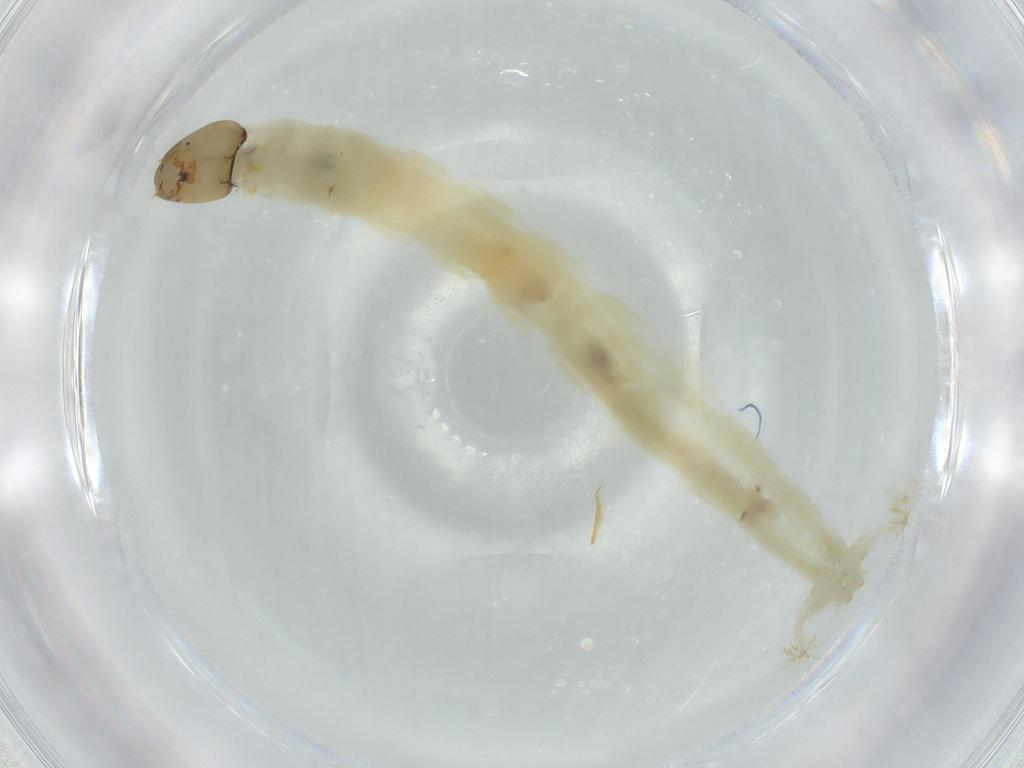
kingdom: Animalia
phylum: Arthropoda
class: Insecta
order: Diptera
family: Chironomidae
